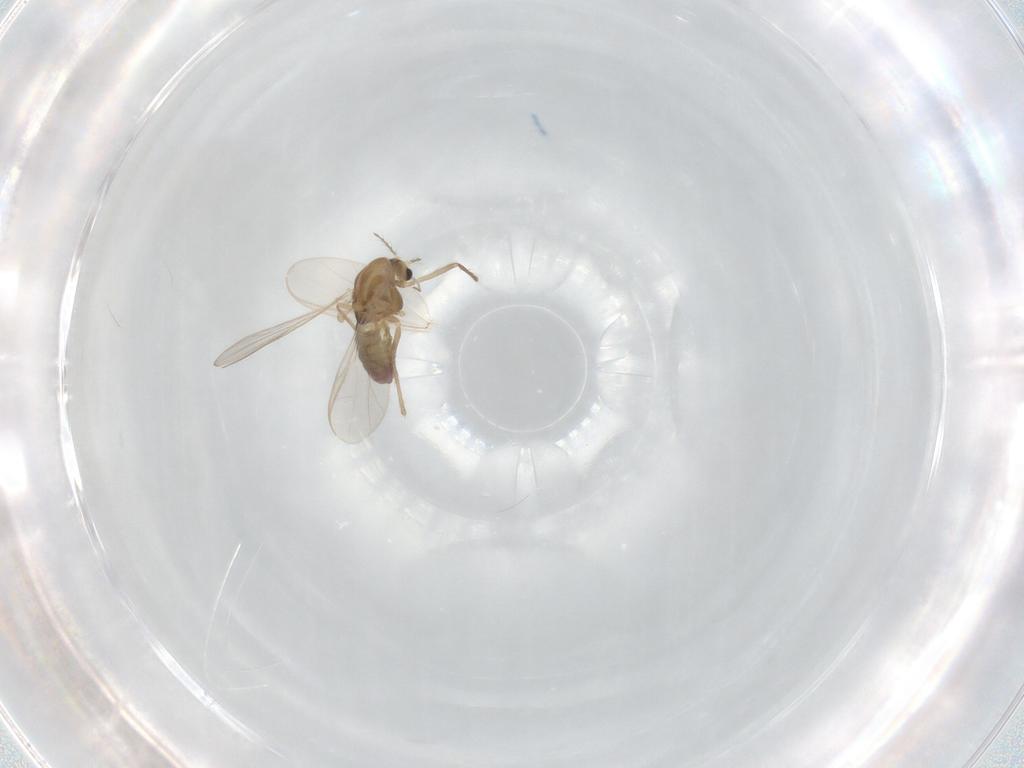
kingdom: Animalia
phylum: Arthropoda
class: Insecta
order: Diptera
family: Chironomidae
